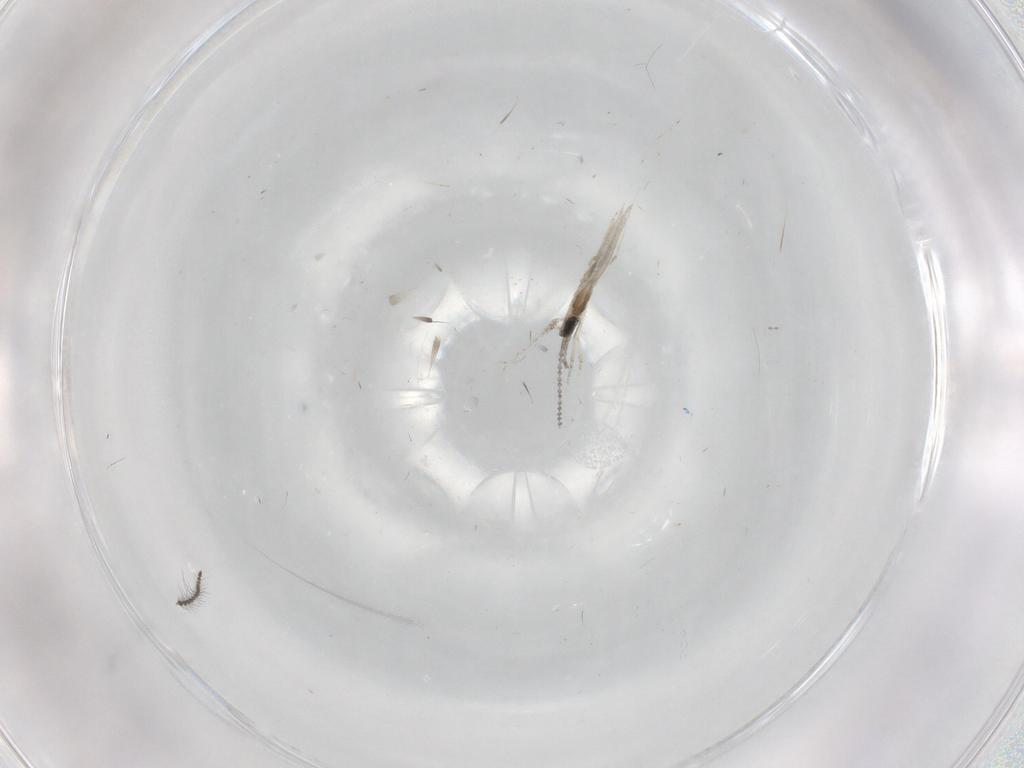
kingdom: Animalia
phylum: Arthropoda
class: Insecta
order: Diptera
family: Cecidomyiidae
